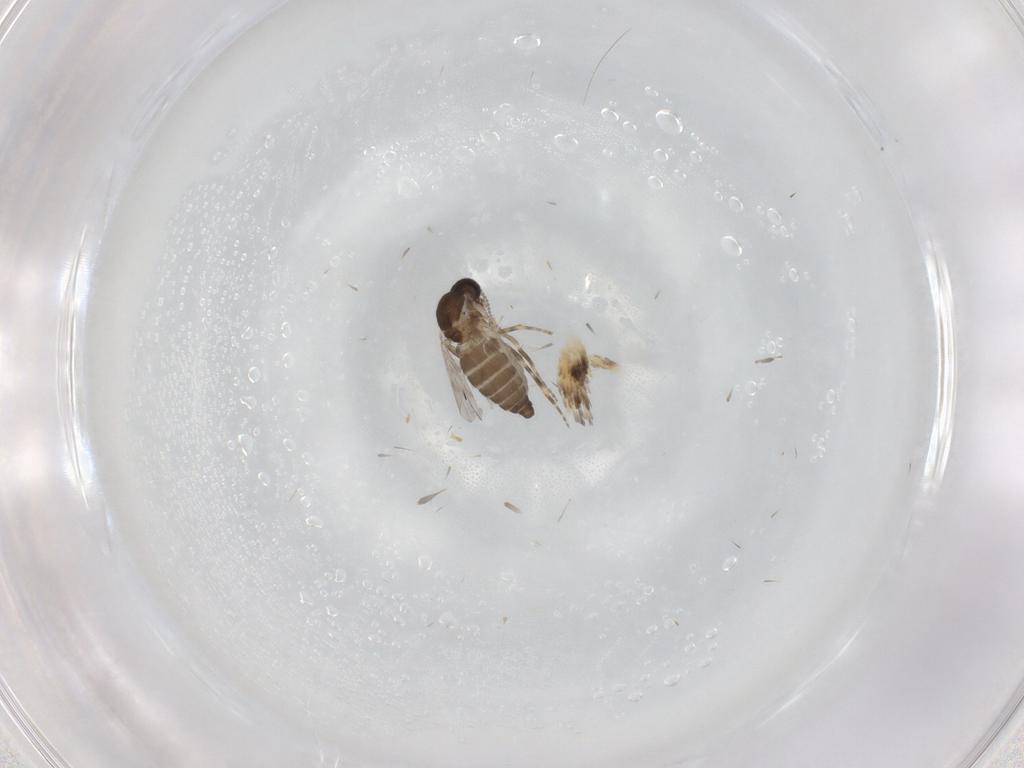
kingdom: Animalia
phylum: Arthropoda
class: Insecta
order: Diptera
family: Ceratopogonidae
